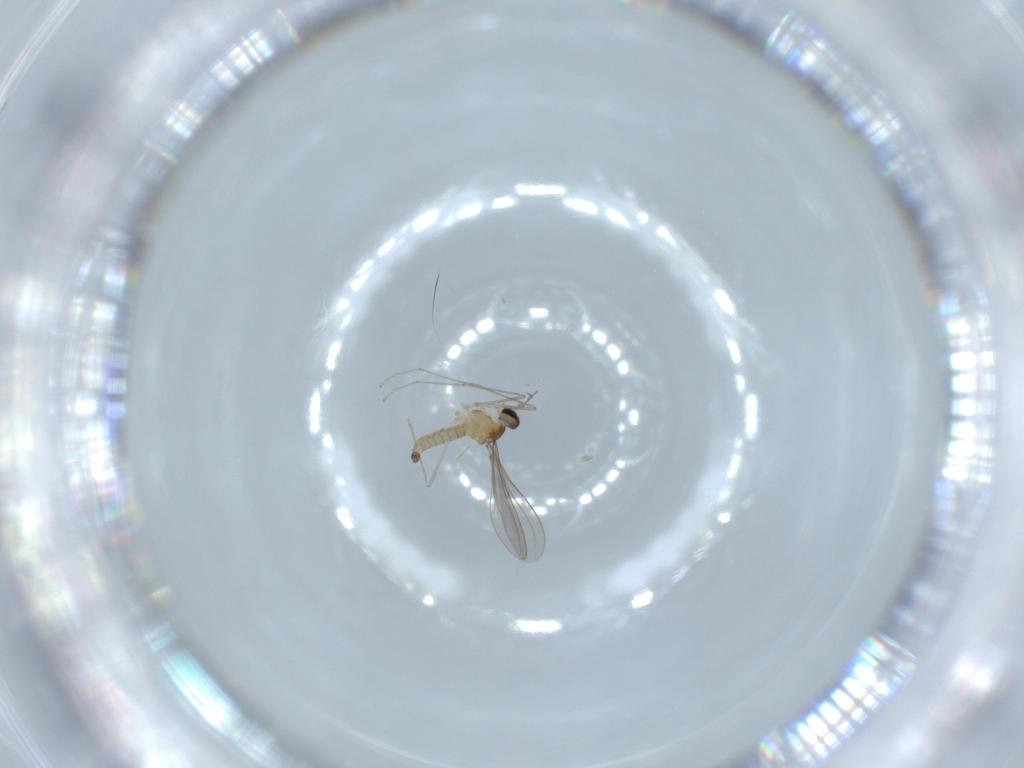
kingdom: Animalia
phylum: Arthropoda
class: Insecta
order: Diptera
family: Cecidomyiidae
